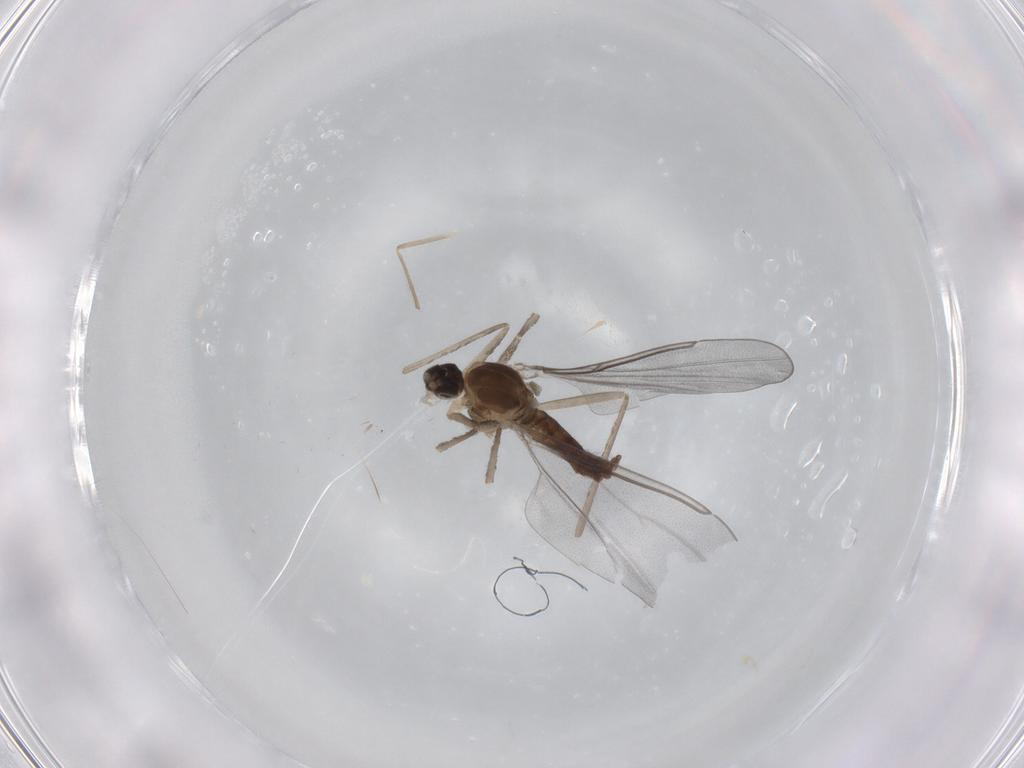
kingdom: Animalia
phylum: Arthropoda
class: Insecta
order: Diptera
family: Cecidomyiidae
